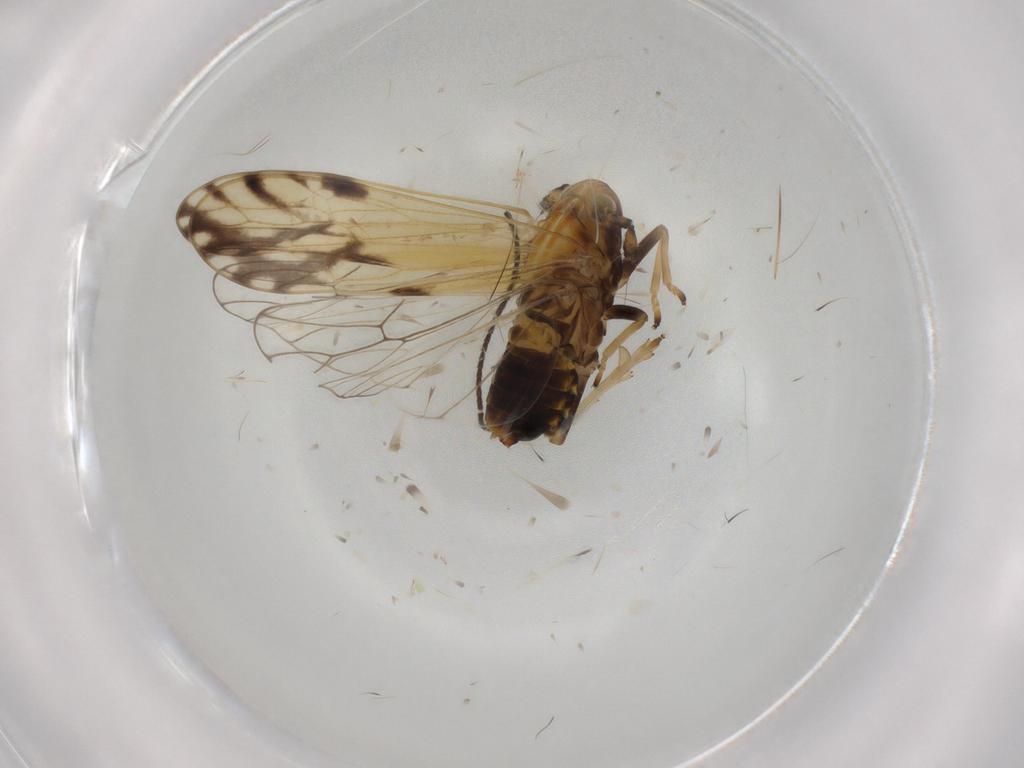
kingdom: Animalia
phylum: Arthropoda
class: Insecta
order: Hemiptera
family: Delphacidae
